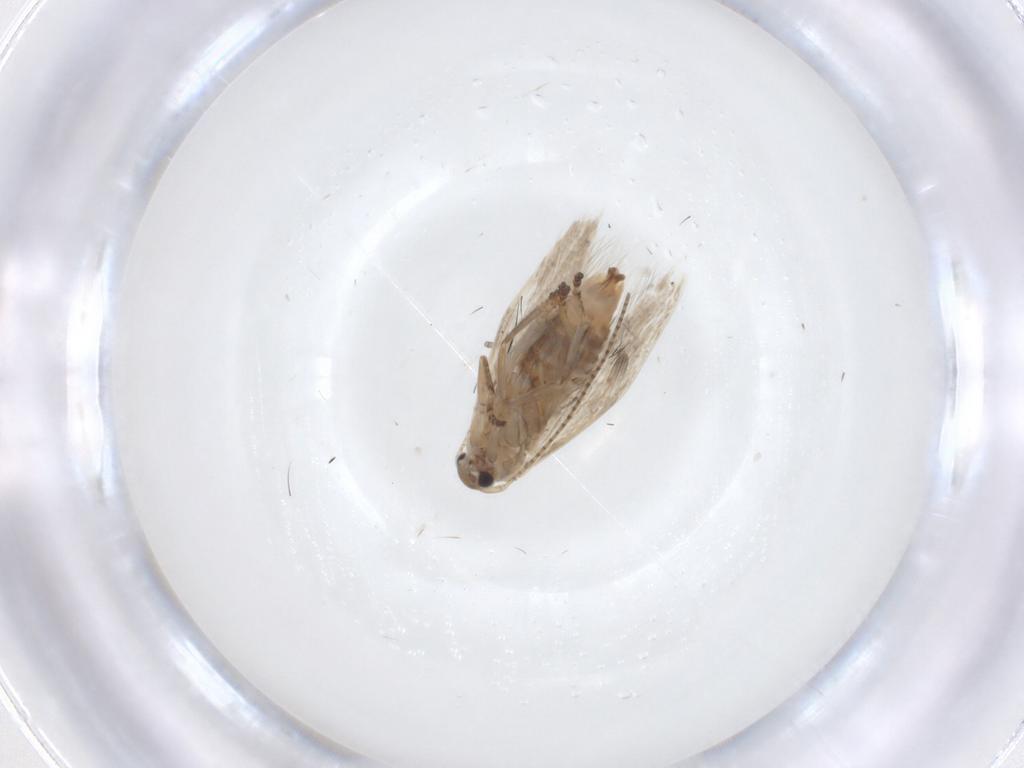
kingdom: Animalia
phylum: Arthropoda
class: Insecta
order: Lepidoptera
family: Bucculatricidae
